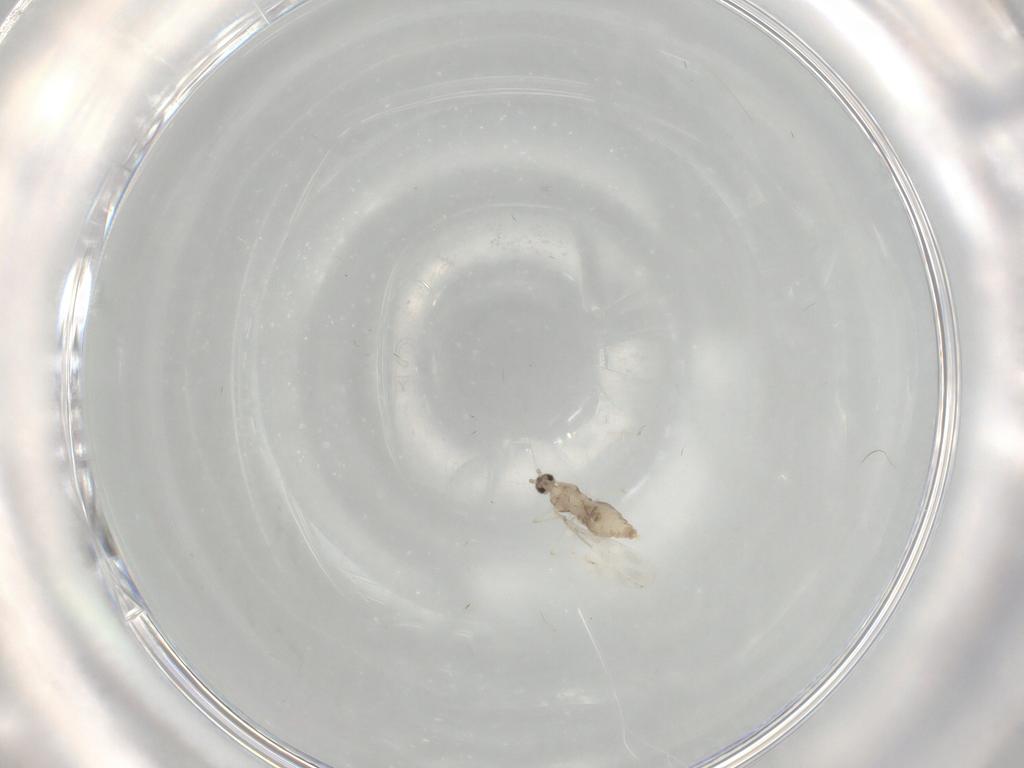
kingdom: Animalia
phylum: Arthropoda
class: Insecta
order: Diptera
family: Cecidomyiidae
